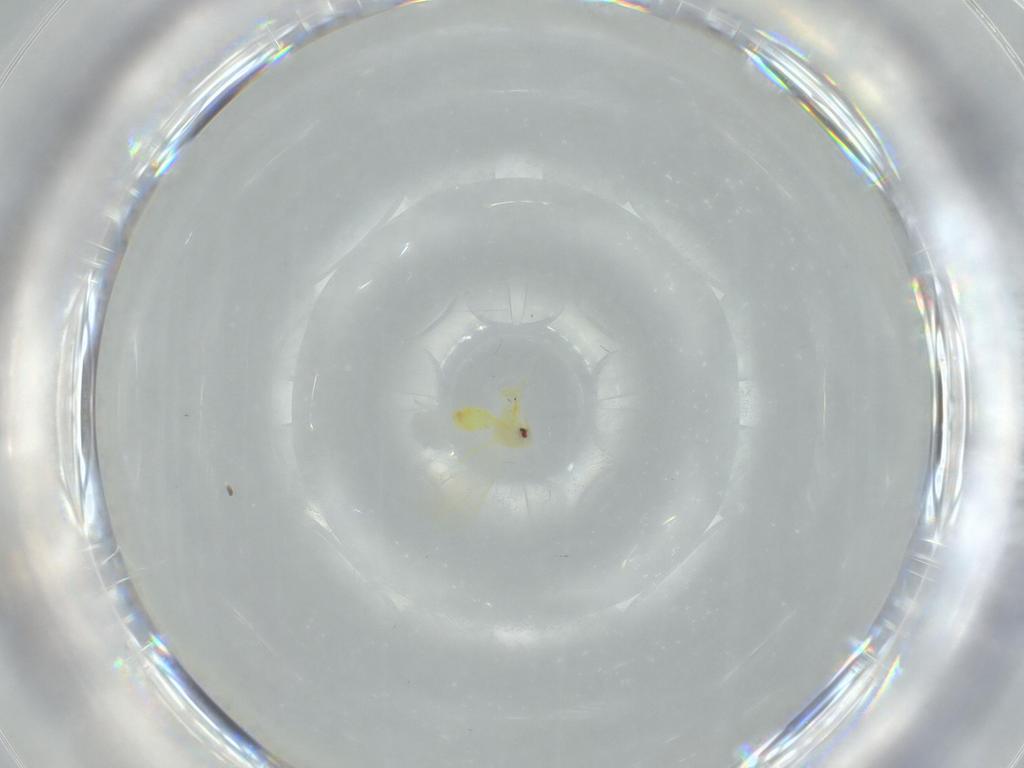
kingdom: Animalia
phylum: Arthropoda
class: Insecta
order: Hemiptera
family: Aleyrodidae
